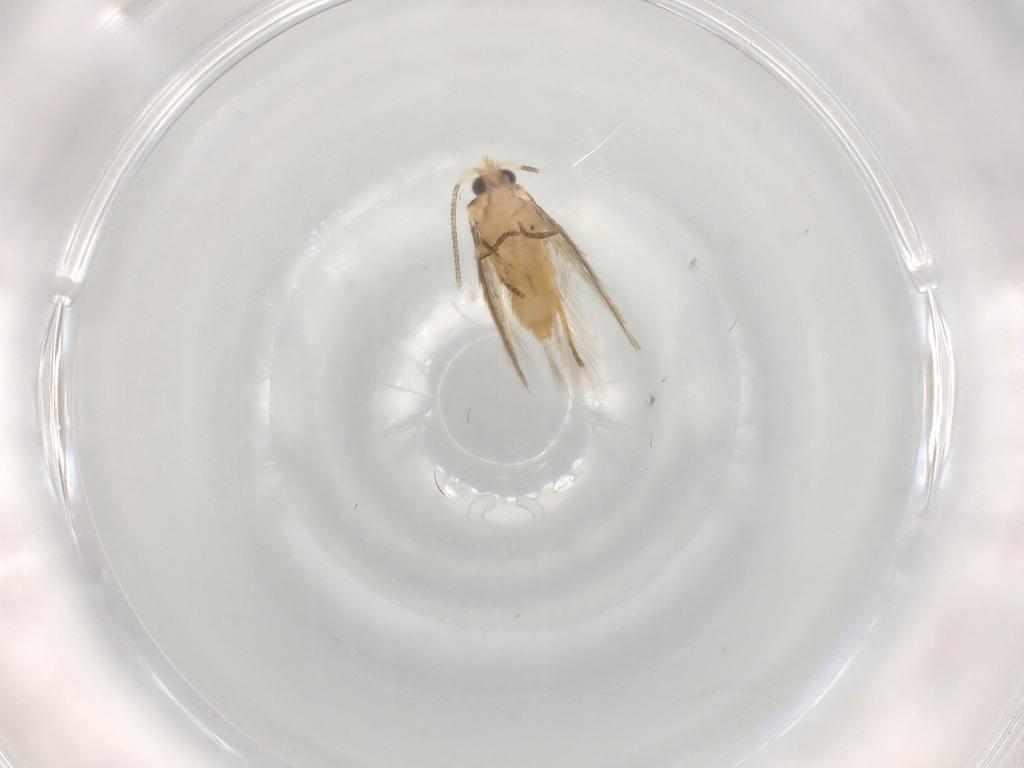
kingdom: Animalia
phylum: Arthropoda
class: Insecta
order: Lepidoptera
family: Nepticulidae
